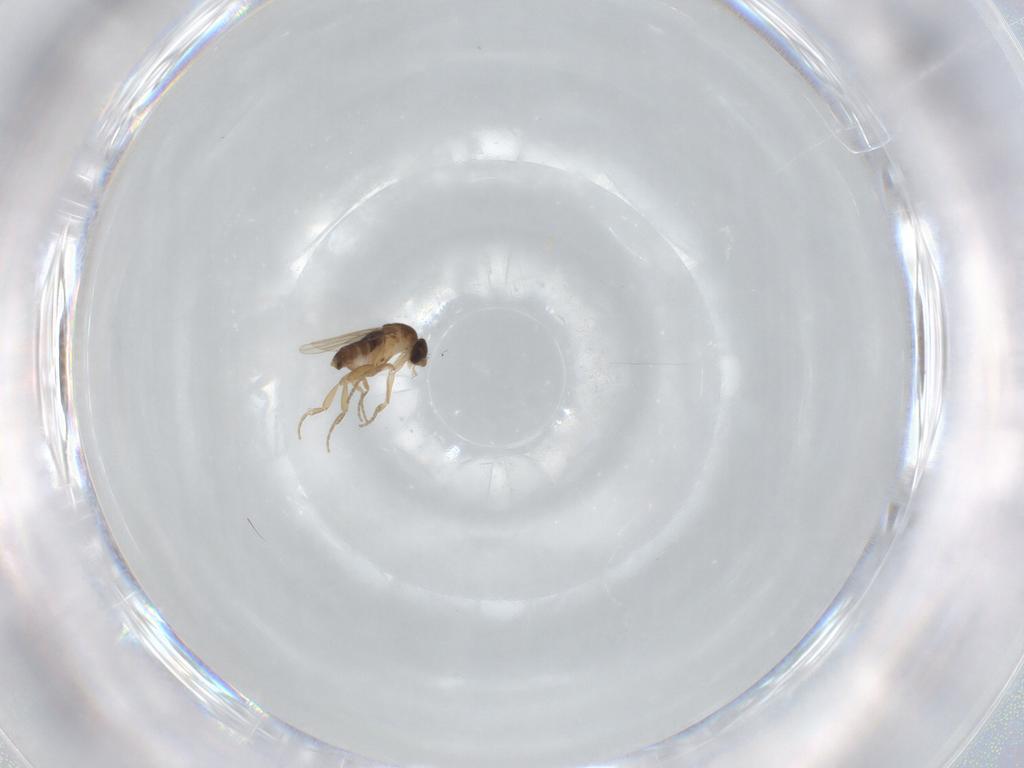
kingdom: Animalia
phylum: Arthropoda
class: Insecta
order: Diptera
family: Phoridae
